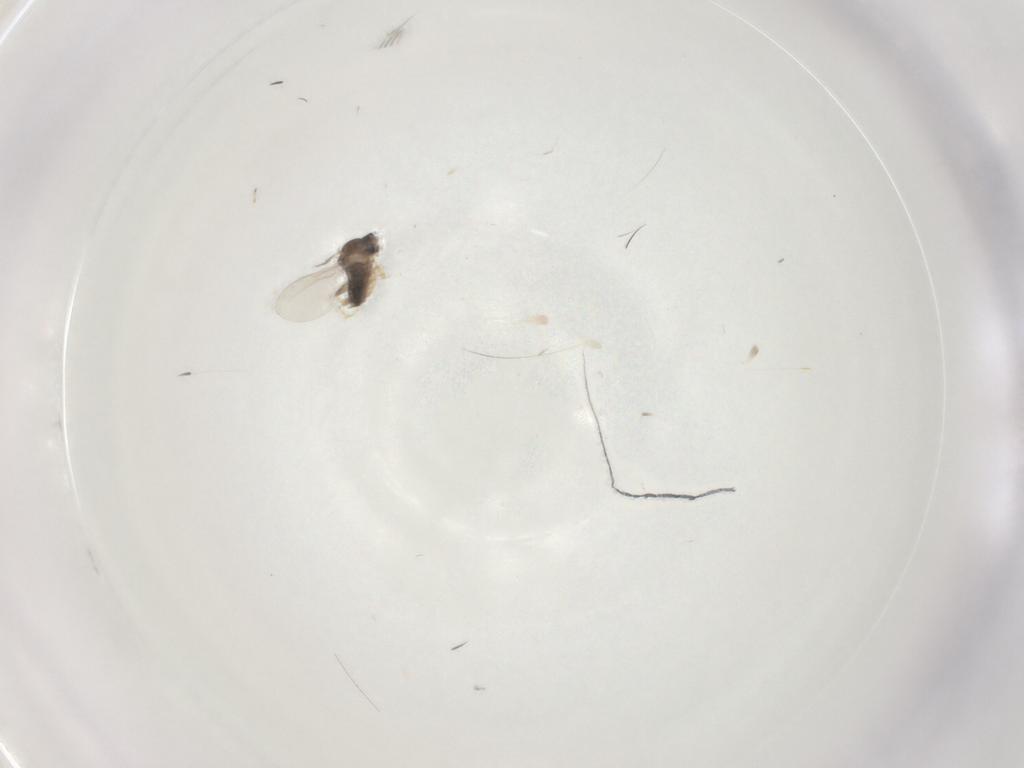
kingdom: Animalia
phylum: Arthropoda
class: Insecta
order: Diptera
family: Cecidomyiidae
